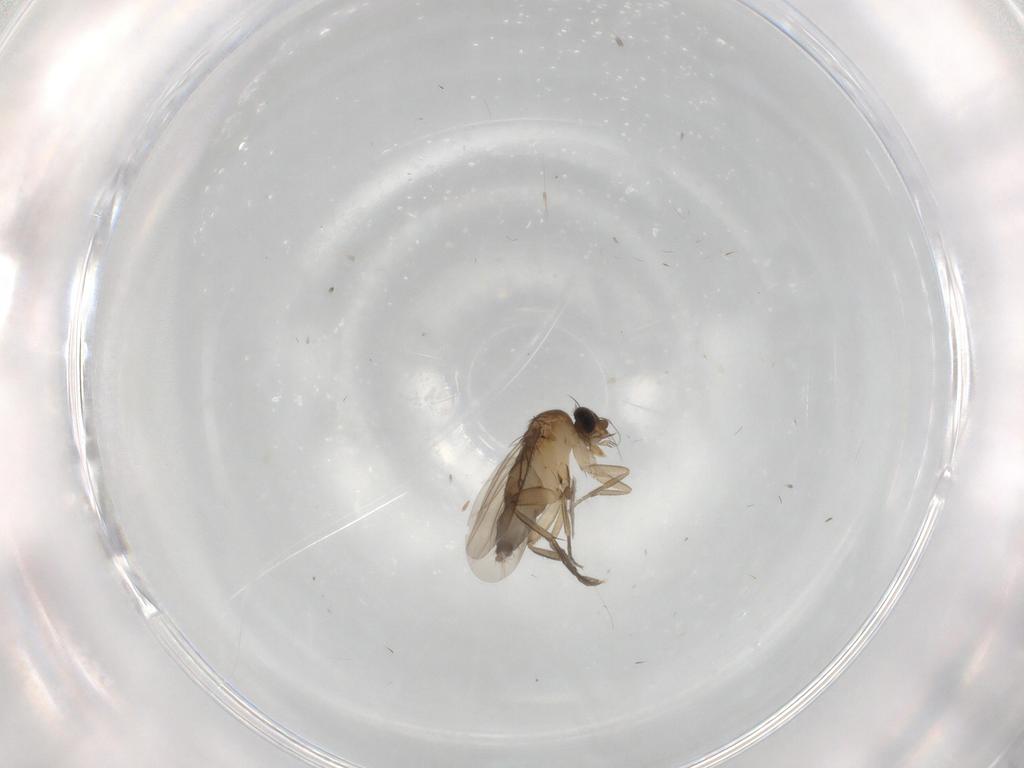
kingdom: Animalia
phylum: Arthropoda
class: Insecta
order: Diptera
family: Phoridae
